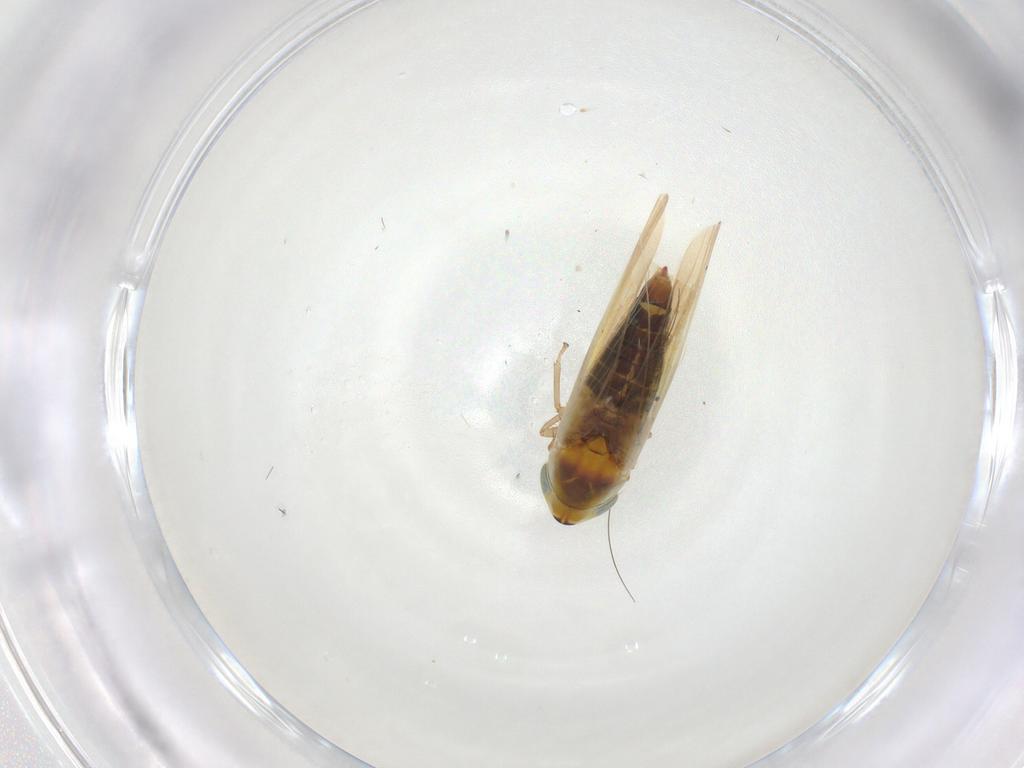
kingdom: Animalia
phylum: Arthropoda
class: Insecta
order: Hemiptera
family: Cicadellidae
